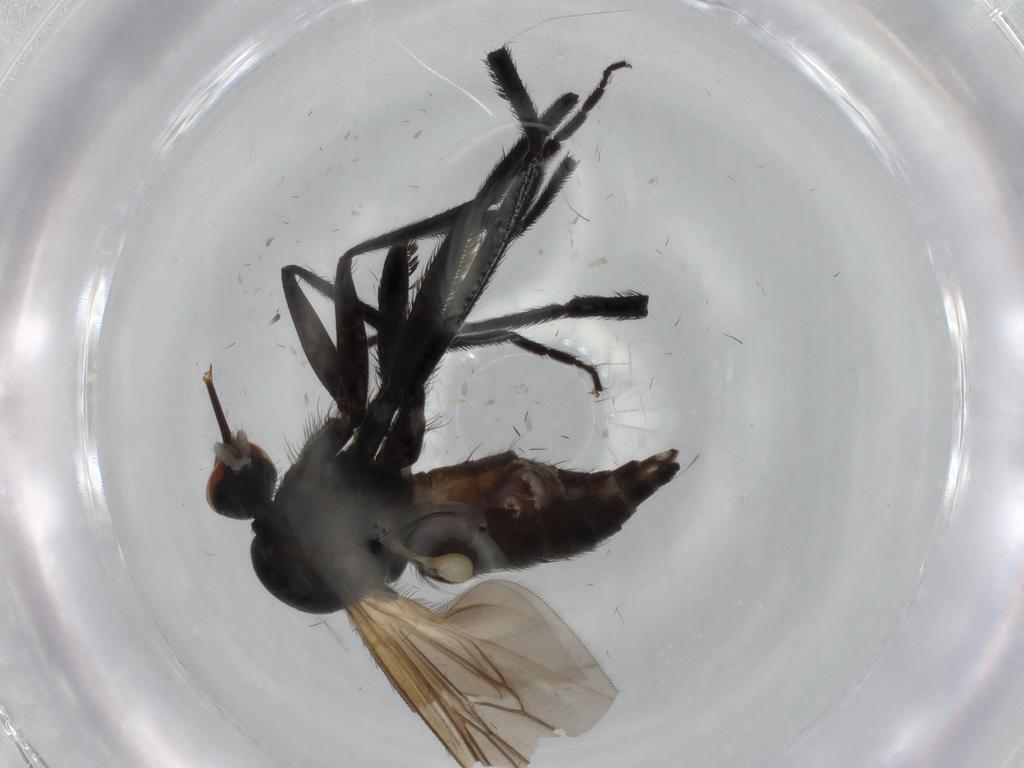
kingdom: Animalia
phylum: Arthropoda
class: Insecta
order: Diptera
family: Empididae
